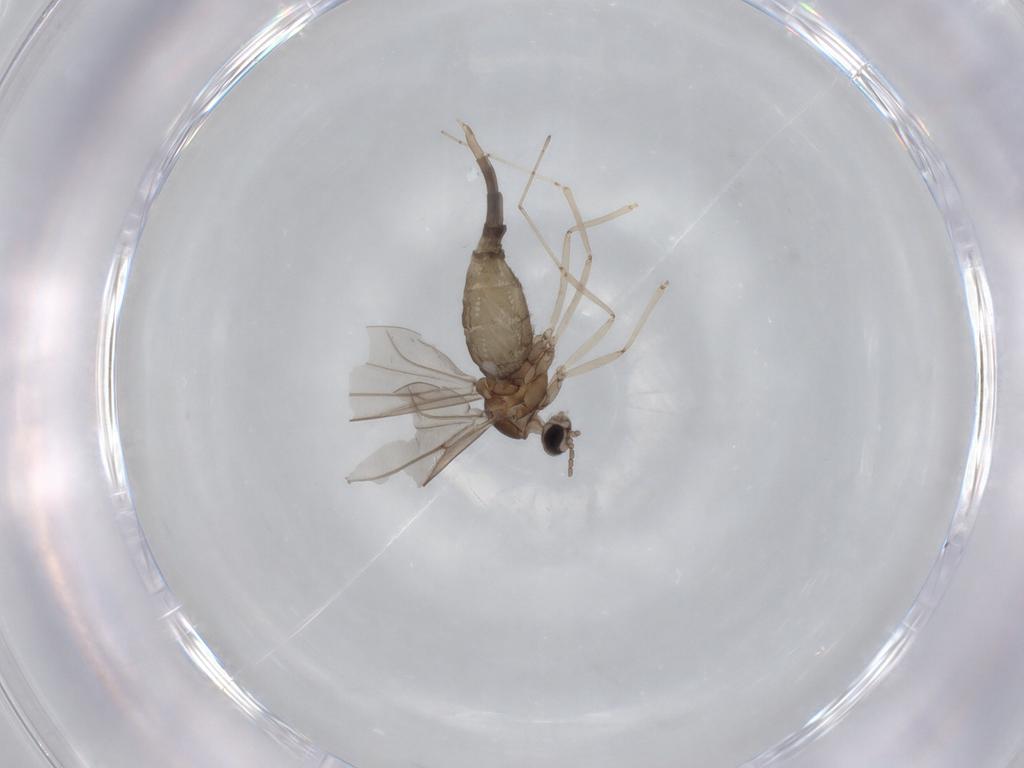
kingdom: Animalia
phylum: Arthropoda
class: Insecta
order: Diptera
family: Cecidomyiidae
